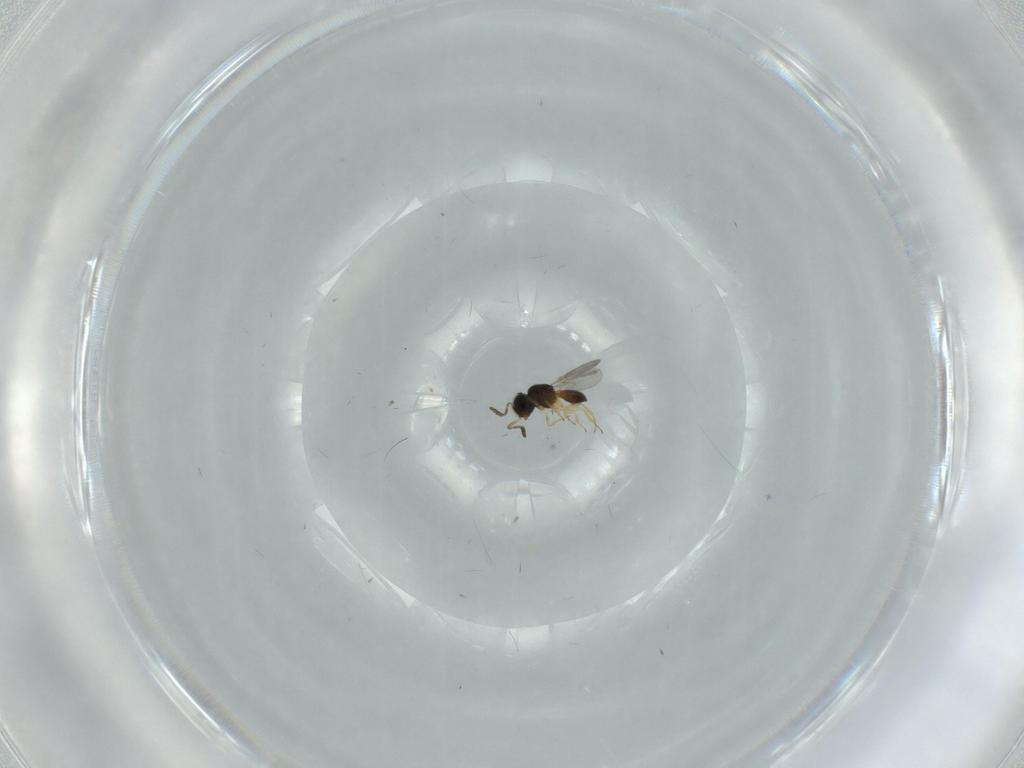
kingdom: Animalia
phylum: Arthropoda
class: Insecta
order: Hymenoptera
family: Scelionidae
